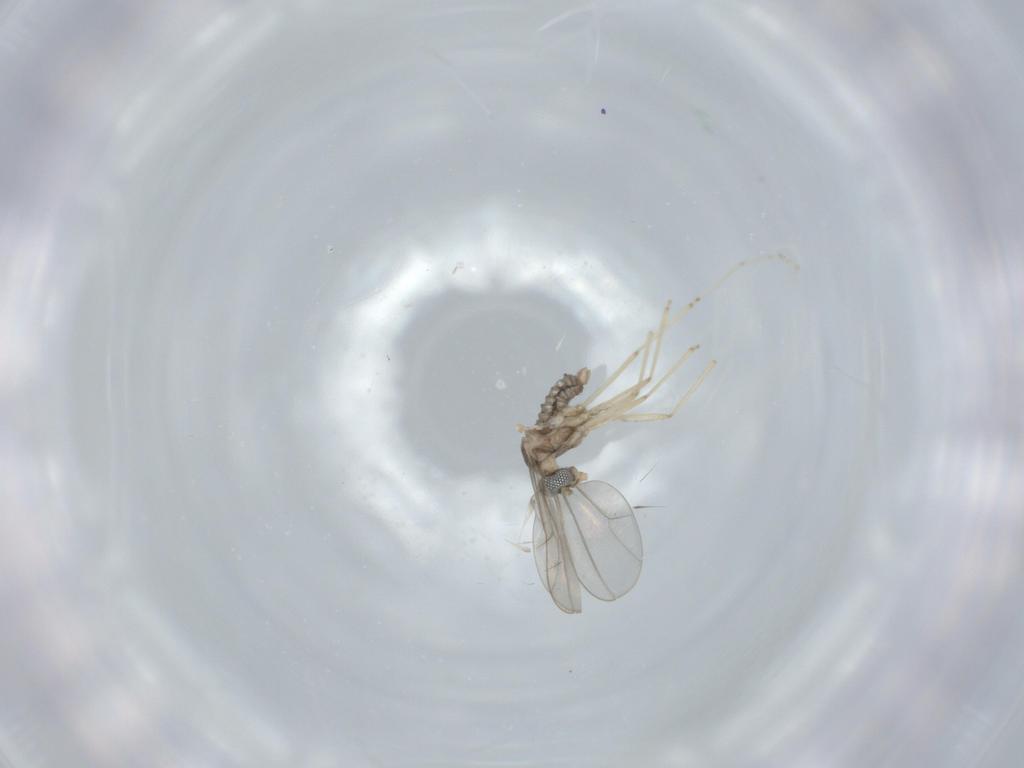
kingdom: Animalia
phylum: Arthropoda
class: Insecta
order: Diptera
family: Cecidomyiidae
